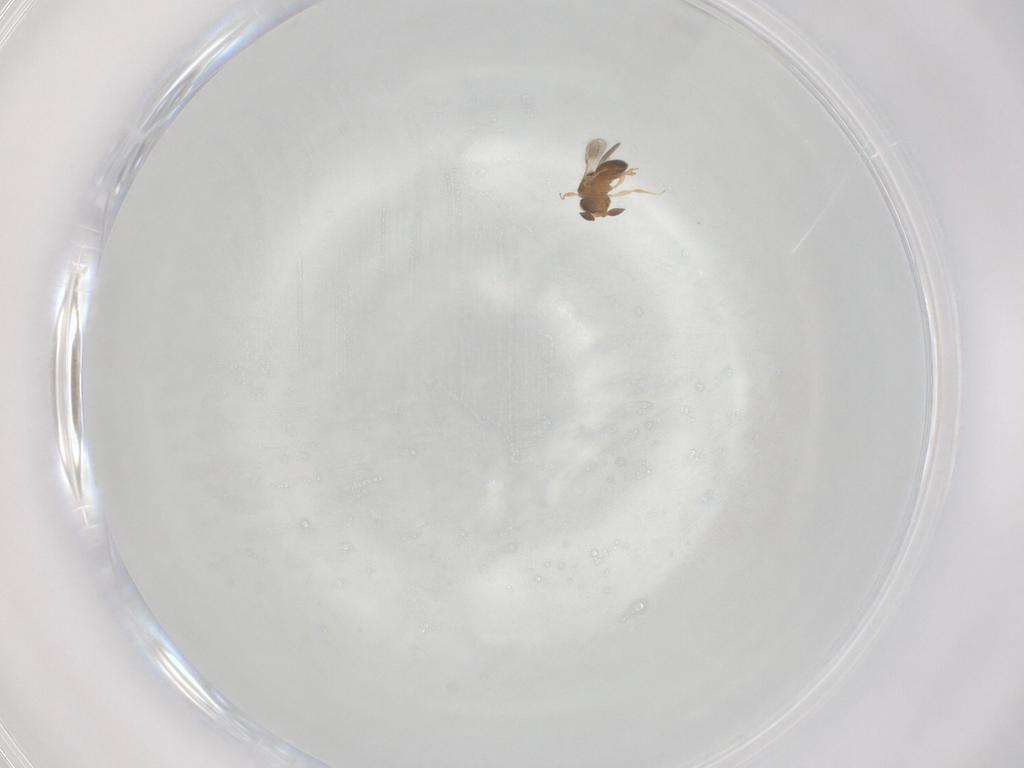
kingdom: Animalia
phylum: Arthropoda
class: Insecta
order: Hymenoptera
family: Scelionidae
